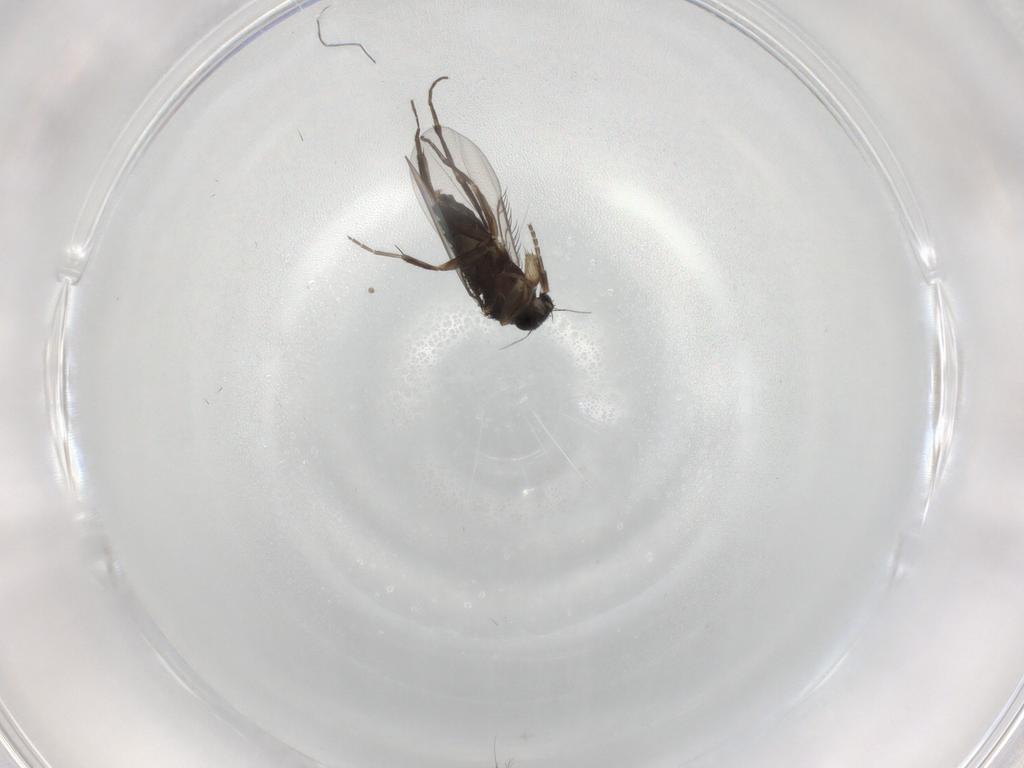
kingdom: Animalia
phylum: Arthropoda
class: Insecta
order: Diptera
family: Phoridae
